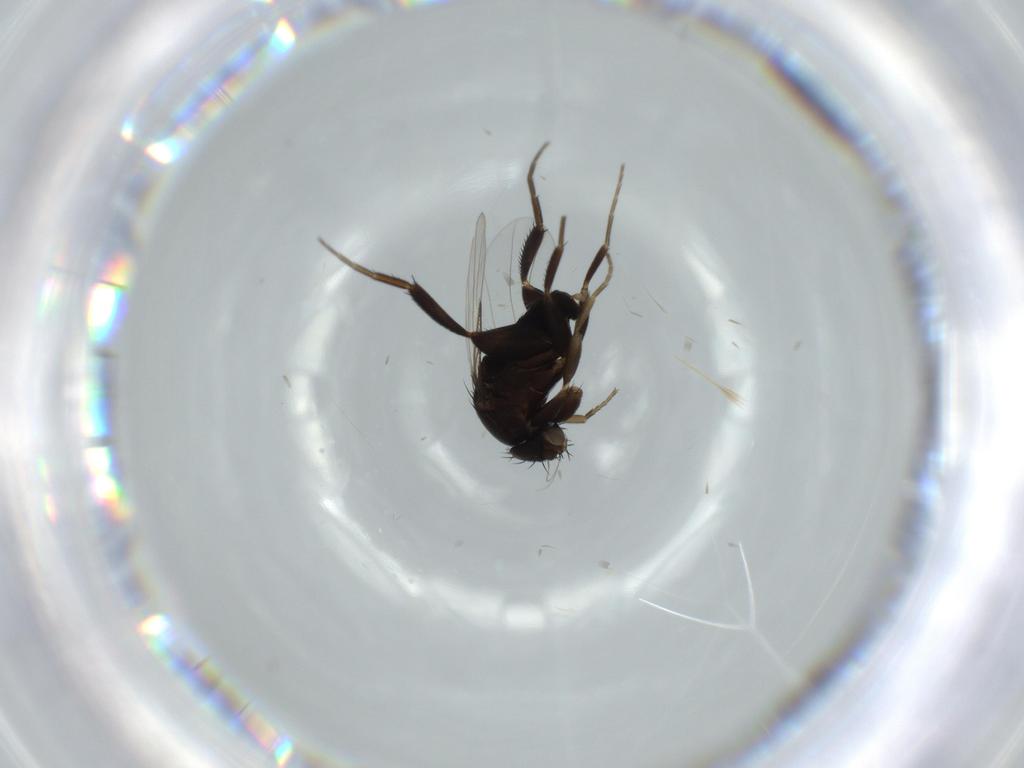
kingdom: Animalia
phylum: Arthropoda
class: Insecta
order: Diptera
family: Phoridae
